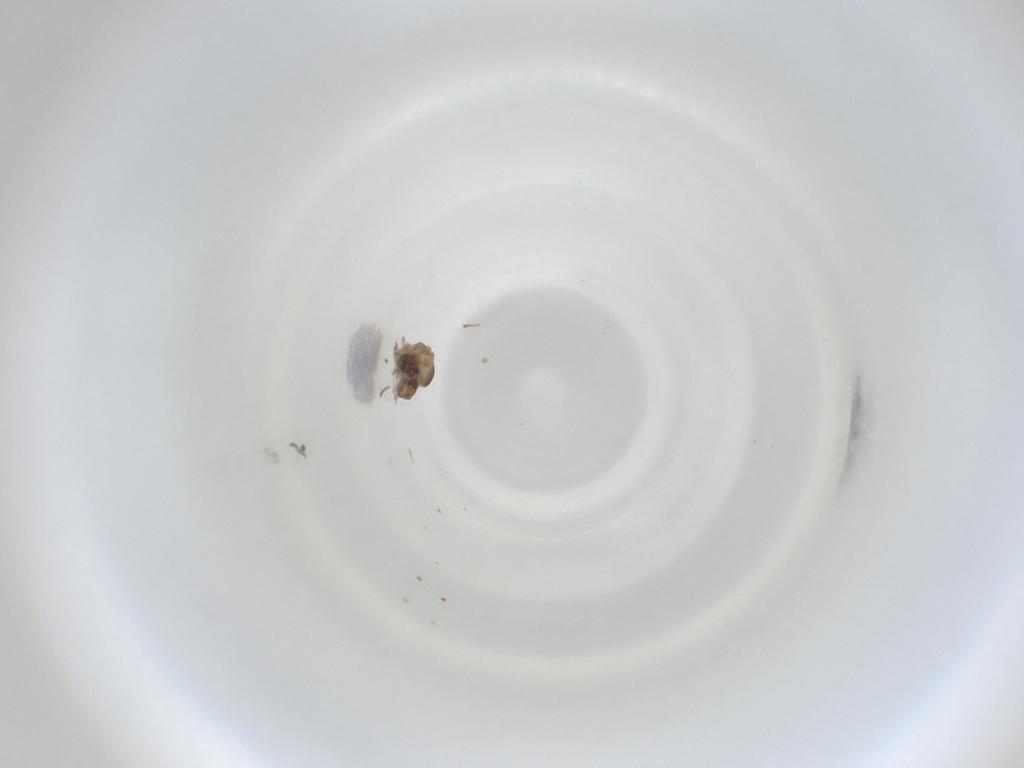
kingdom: Animalia
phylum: Arthropoda
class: Insecta
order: Diptera
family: Cecidomyiidae
